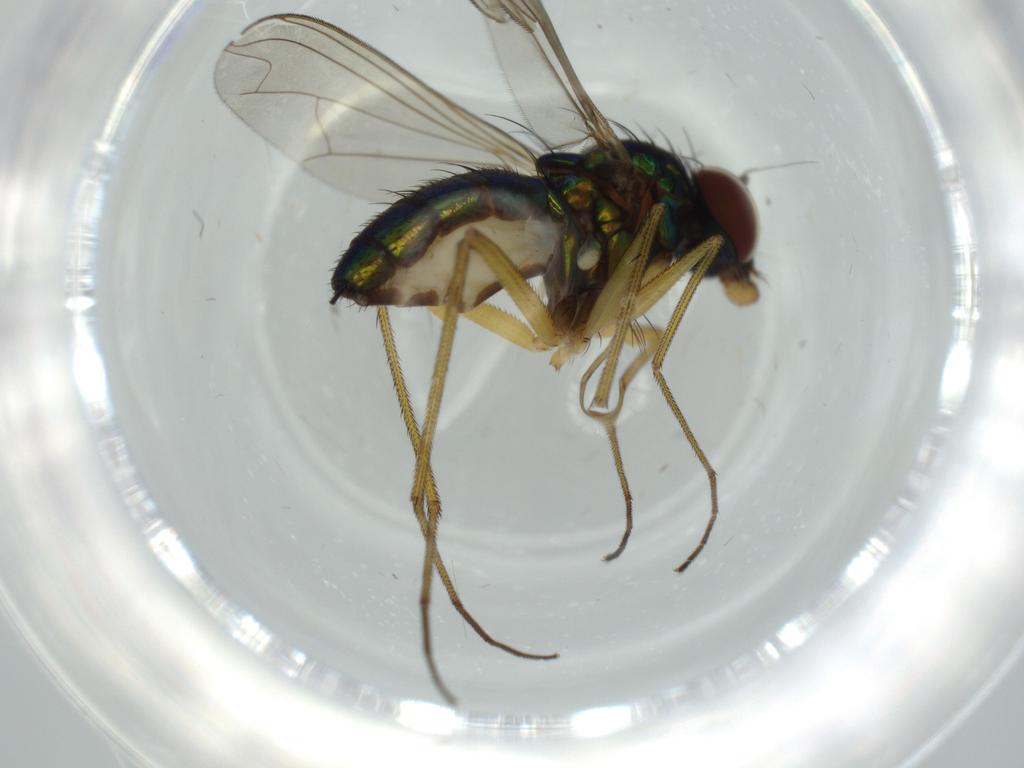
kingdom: Animalia
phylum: Arthropoda
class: Insecta
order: Diptera
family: Dolichopodidae
